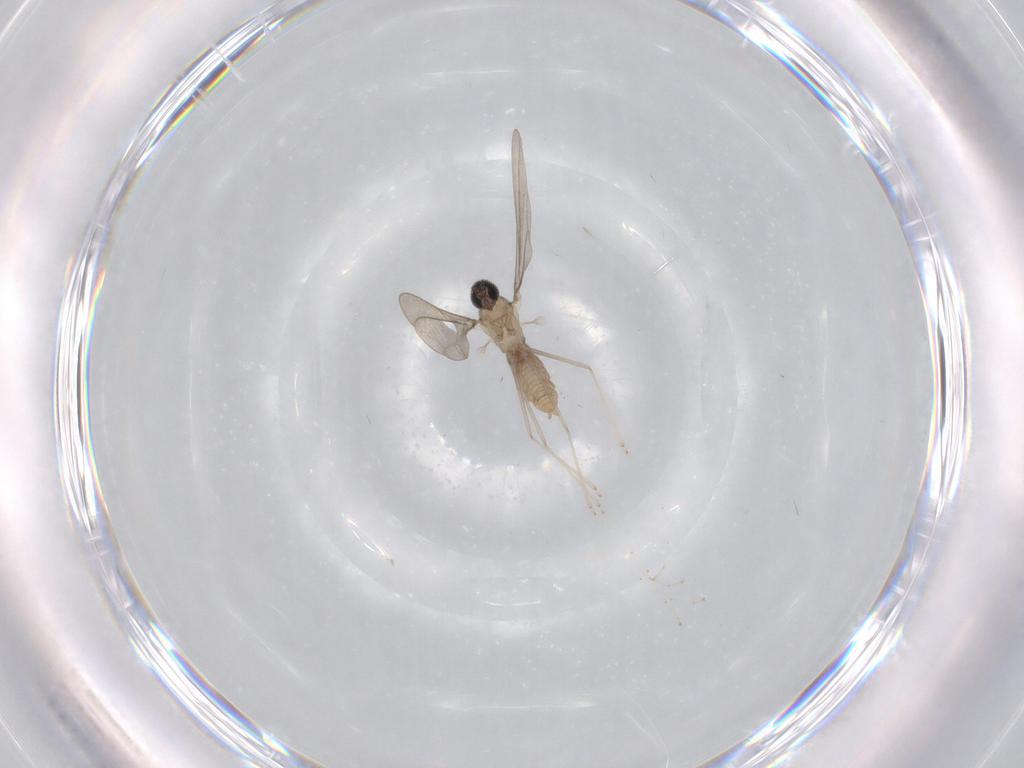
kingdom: Animalia
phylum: Arthropoda
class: Insecta
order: Diptera
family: Cecidomyiidae
